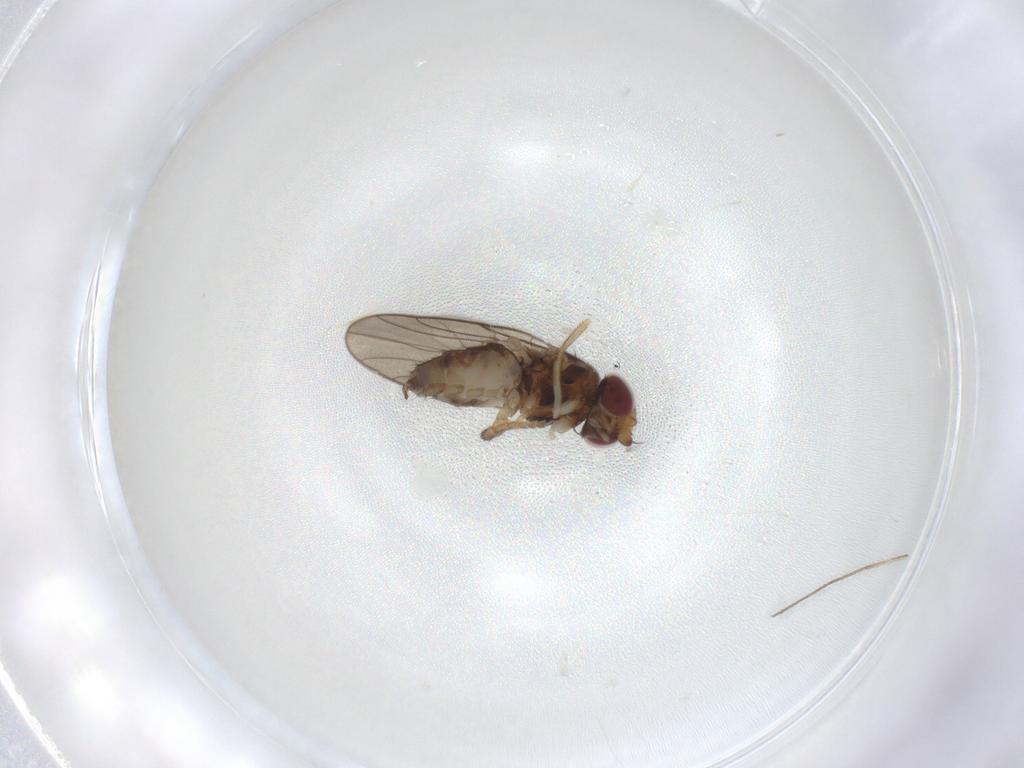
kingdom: Animalia
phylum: Arthropoda
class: Insecta
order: Diptera
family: Chloropidae
